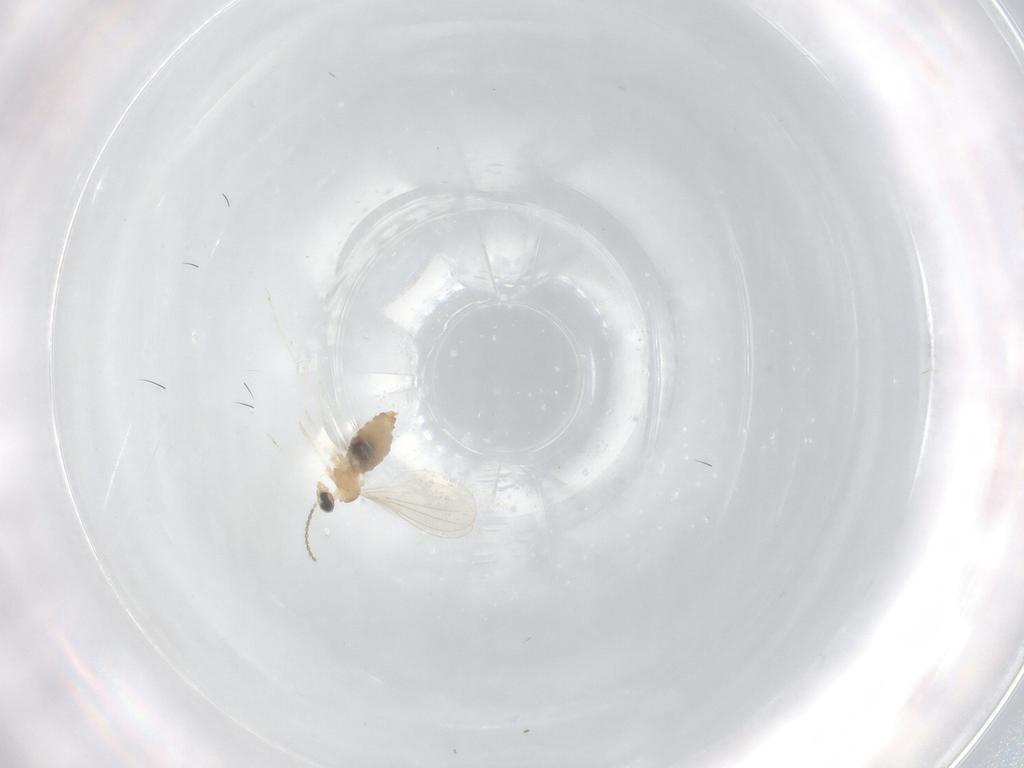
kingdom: Animalia
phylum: Arthropoda
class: Insecta
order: Diptera
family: Cecidomyiidae
